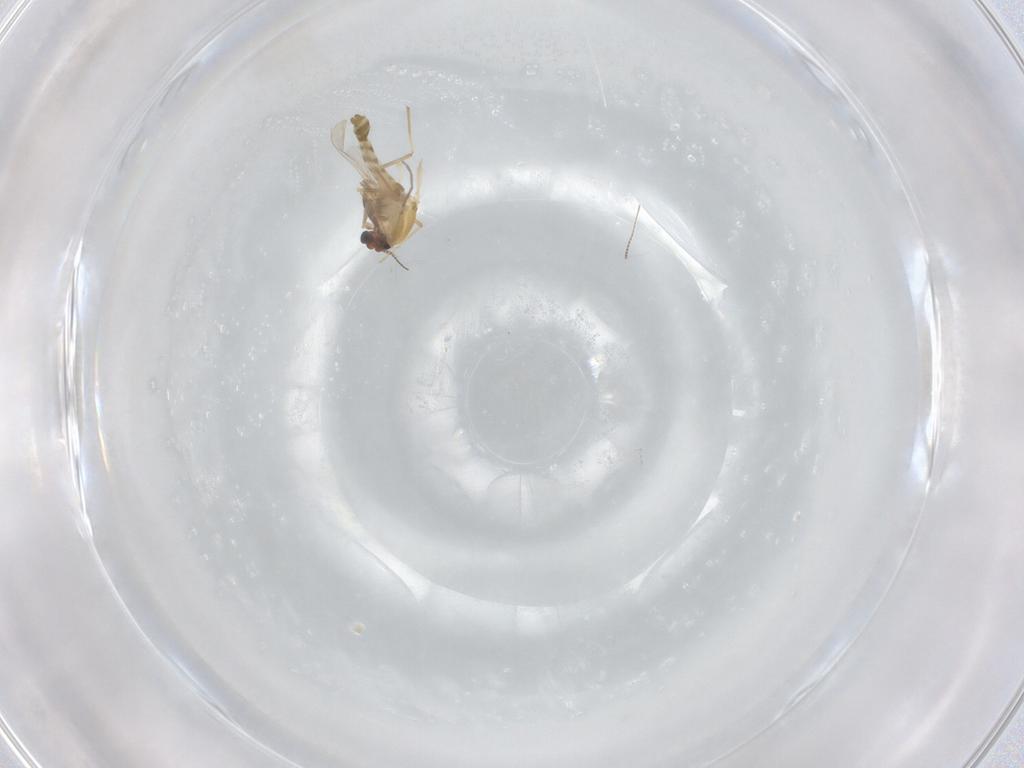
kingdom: Animalia
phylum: Arthropoda
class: Insecta
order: Diptera
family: Chironomidae
